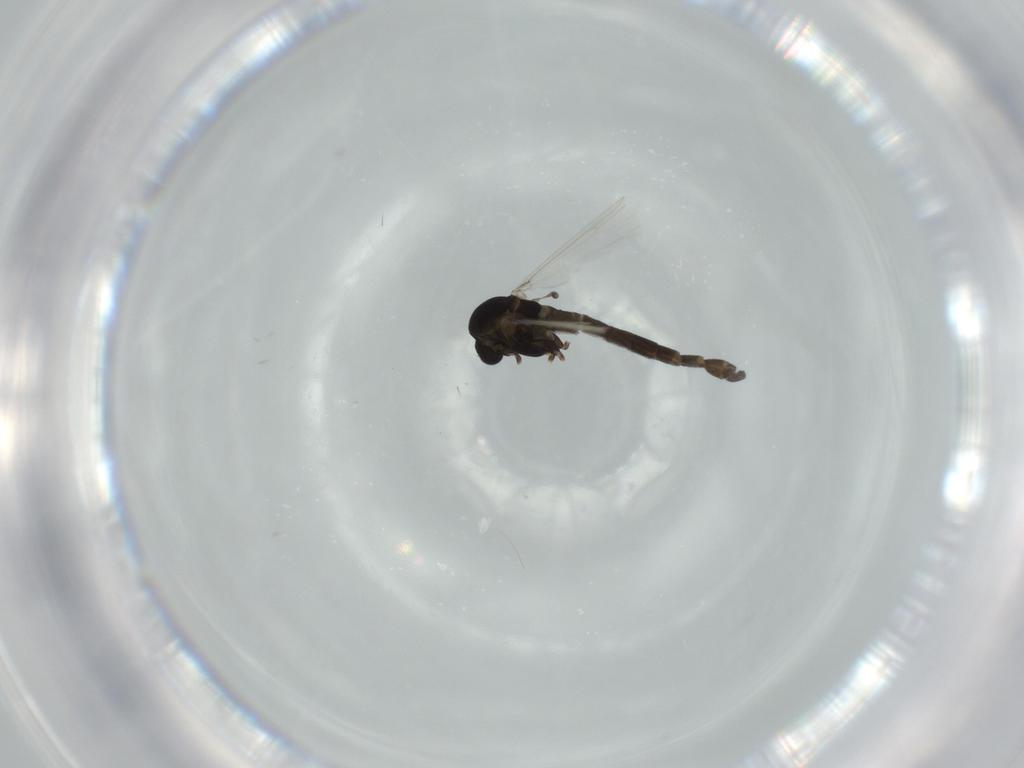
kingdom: Animalia
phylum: Arthropoda
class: Insecta
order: Diptera
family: Chironomidae
